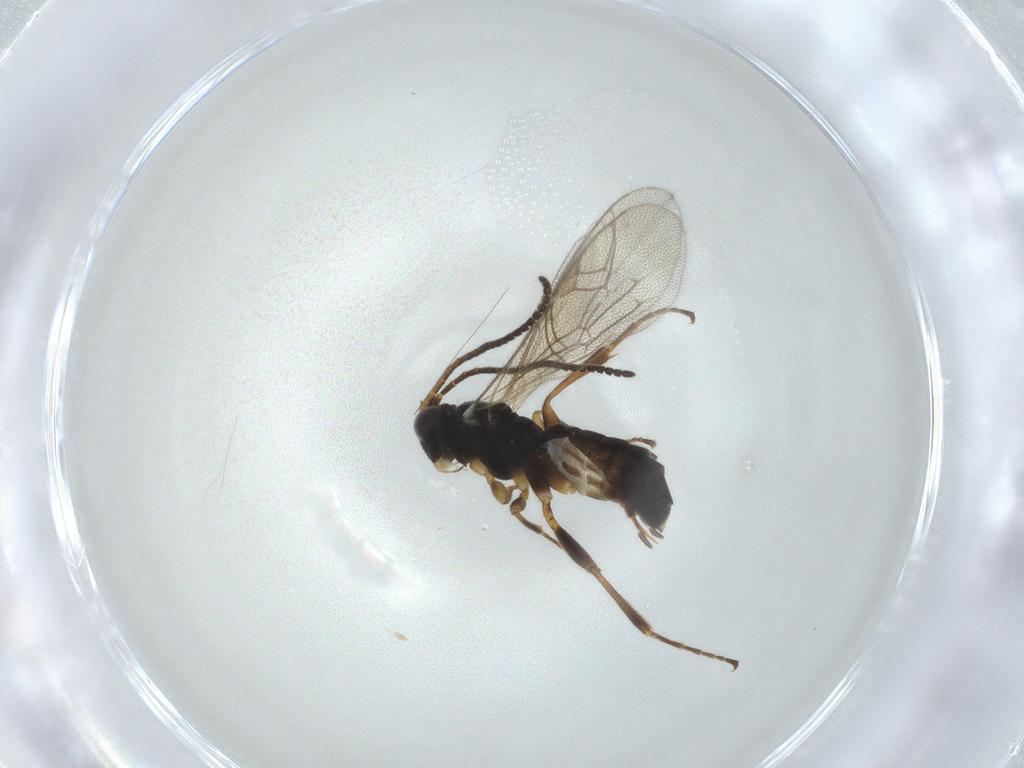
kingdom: Animalia
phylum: Arthropoda
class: Insecta
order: Hymenoptera
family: Ichneumonidae
